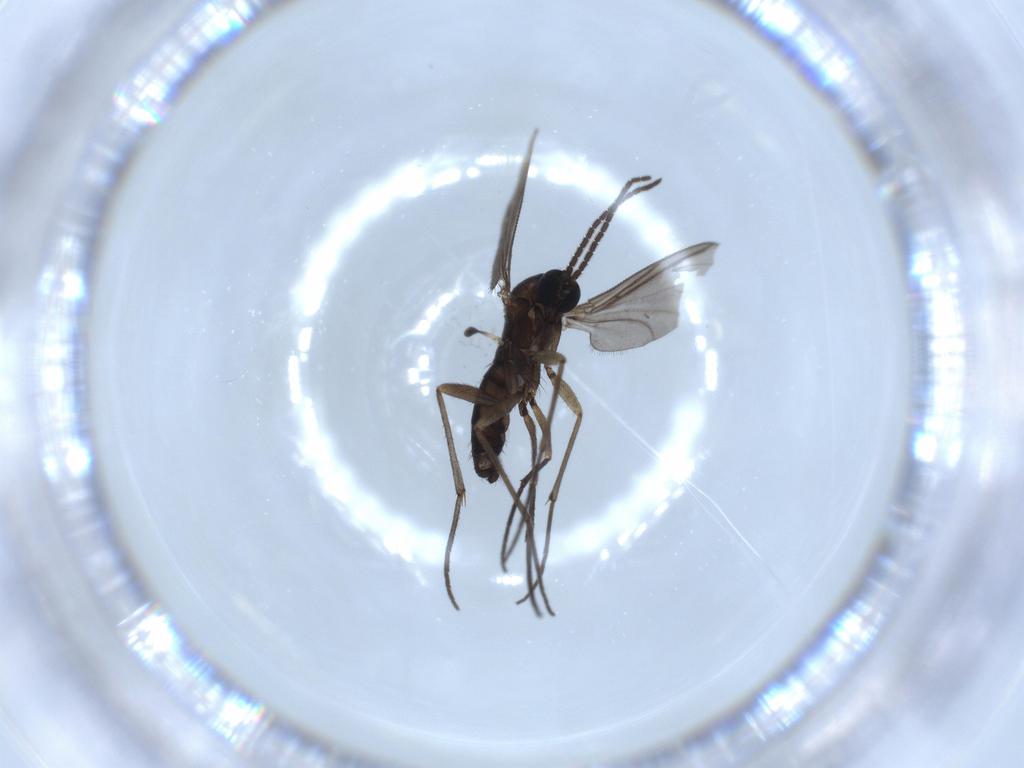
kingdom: Animalia
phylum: Arthropoda
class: Insecta
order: Diptera
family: Sciaridae
